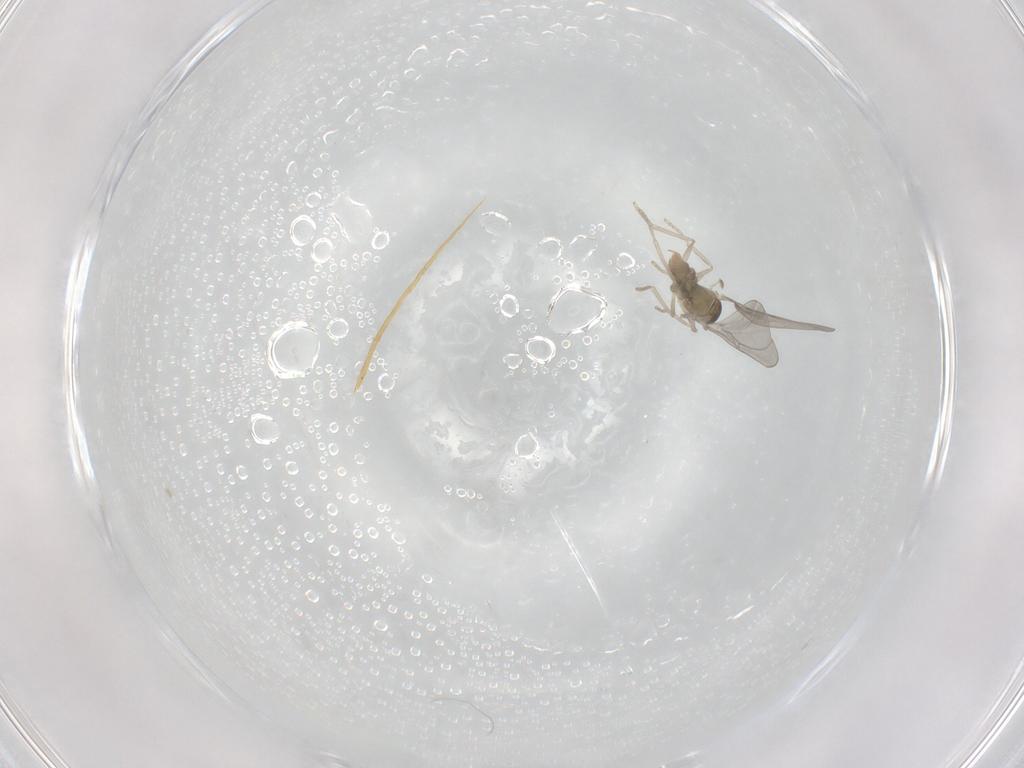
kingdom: Animalia
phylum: Arthropoda
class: Insecta
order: Diptera
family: Cecidomyiidae
